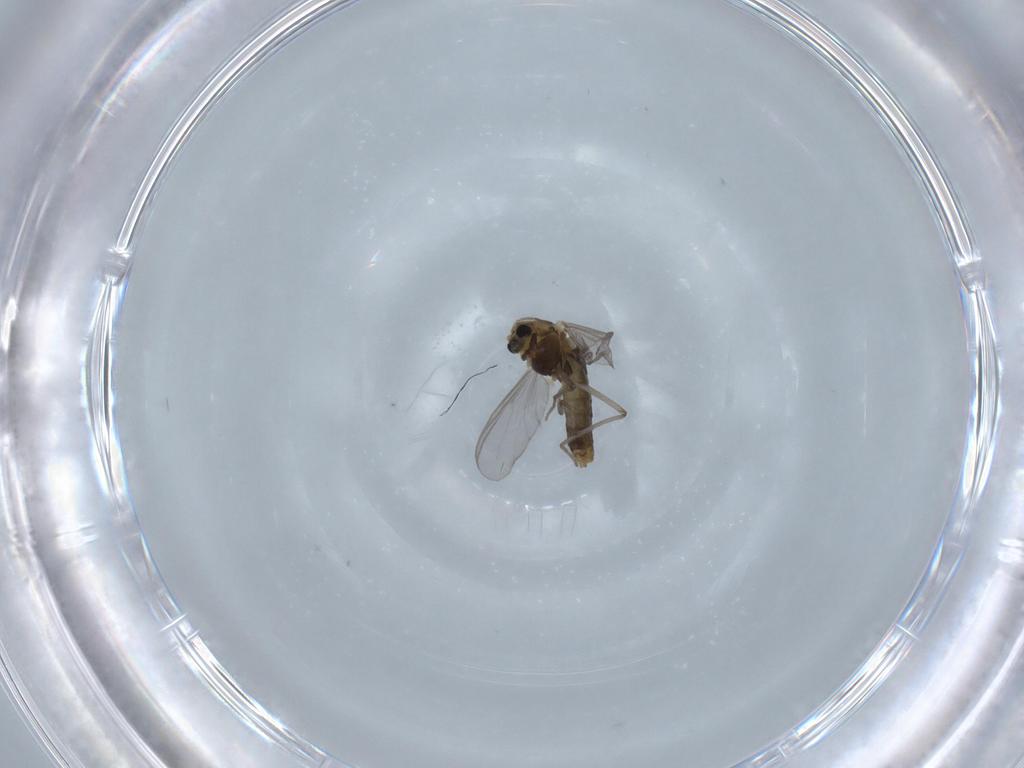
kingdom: Animalia
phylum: Arthropoda
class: Insecta
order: Diptera
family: Chironomidae
